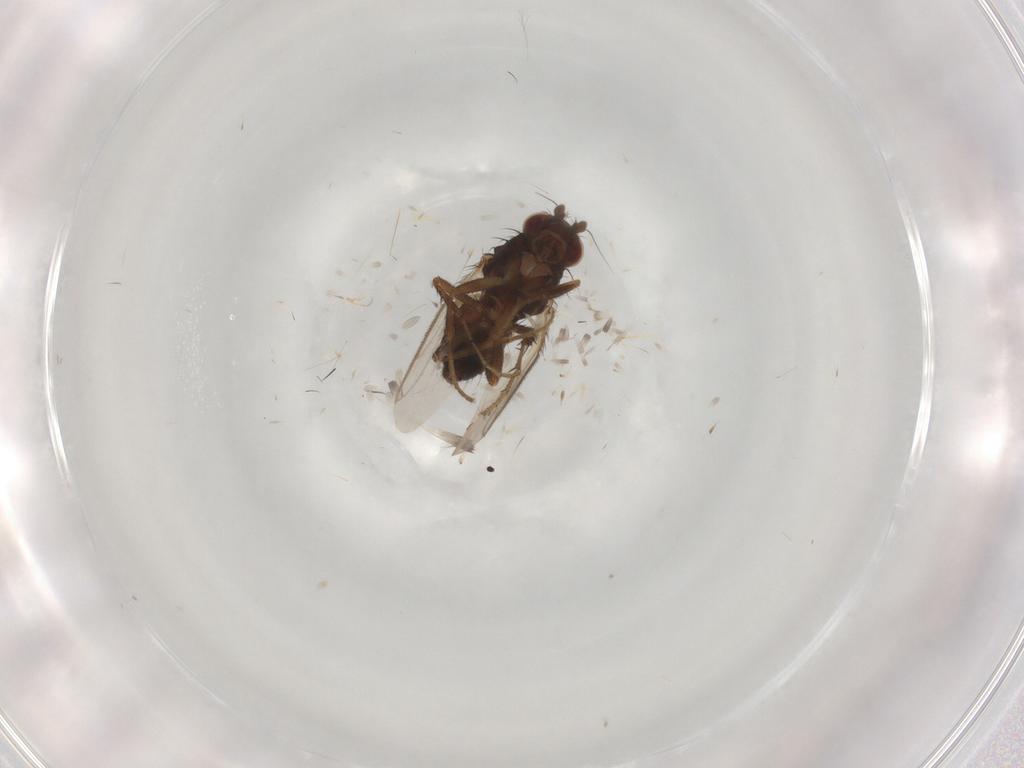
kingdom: Animalia
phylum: Arthropoda
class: Insecta
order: Diptera
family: Sphaeroceridae
